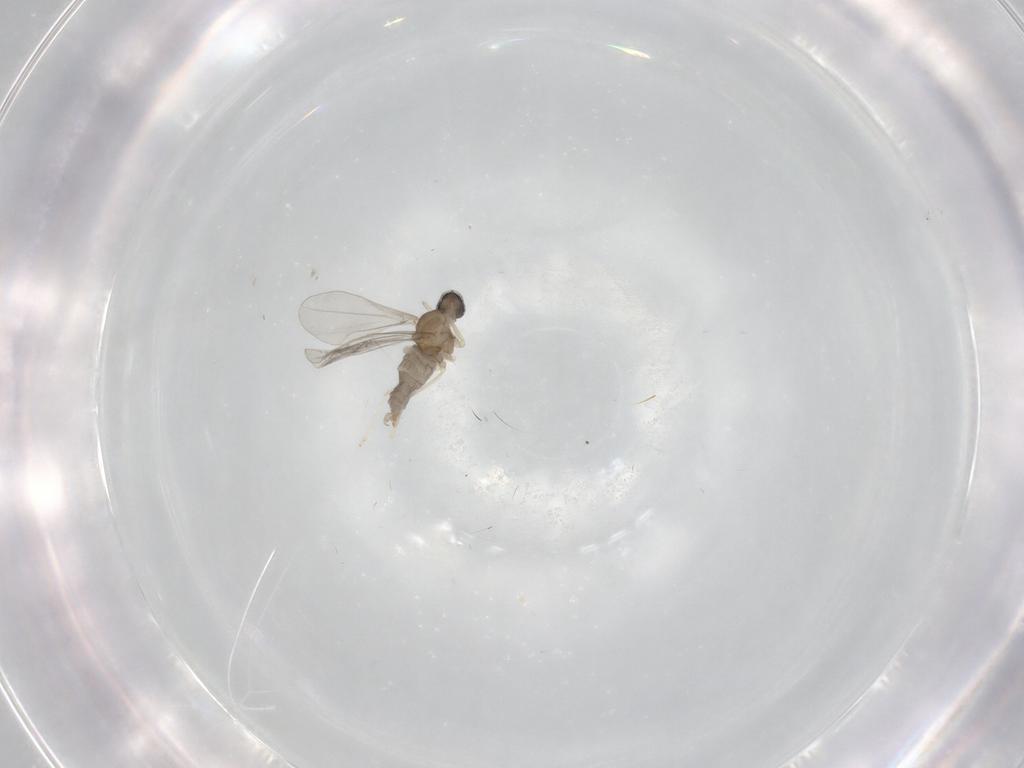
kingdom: Animalia
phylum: Arthropoda
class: Insecta
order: Diptera
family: Cecidomyiidae
